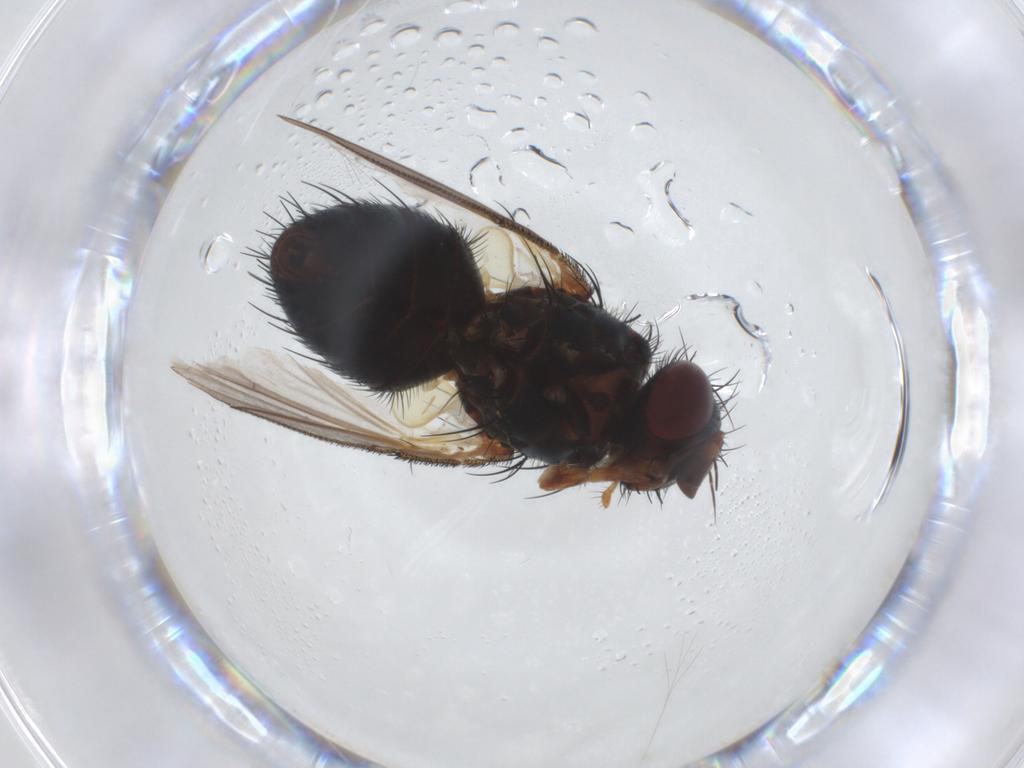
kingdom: Animalia
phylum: Arthropoda
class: Insecta
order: Diptera
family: Tachinidae
